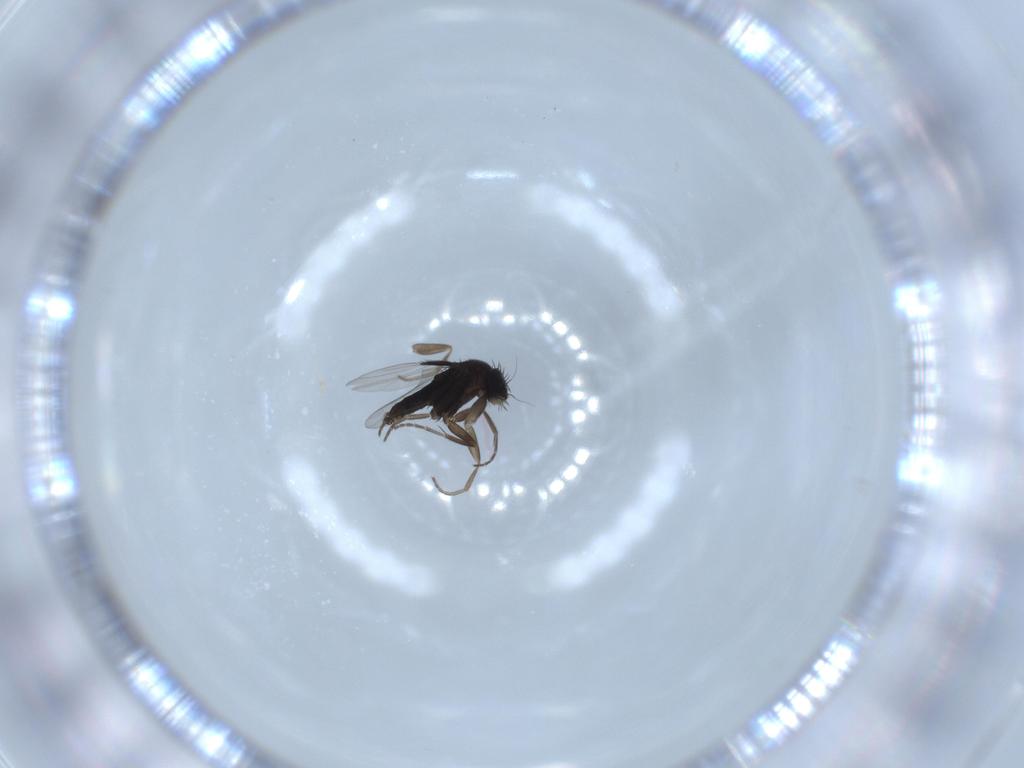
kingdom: Animalia
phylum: Arthropoda
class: Insecta
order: Diptera
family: Phoridae
